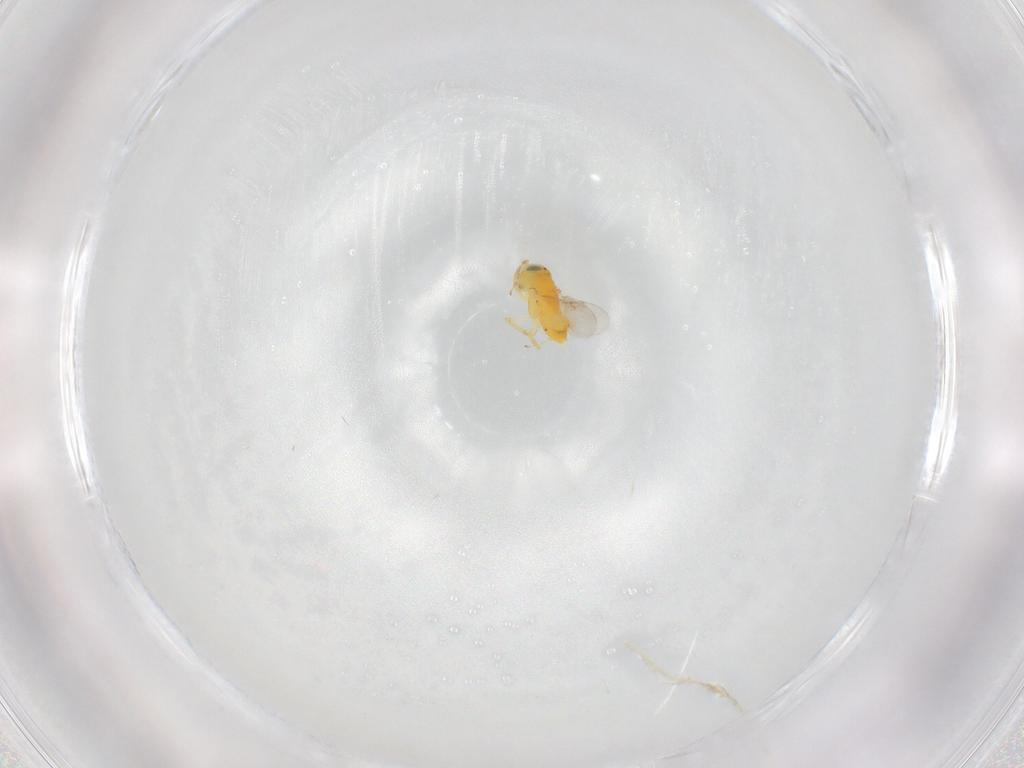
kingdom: Animalia
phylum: Arthropoda
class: Insecta
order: Hymenoptera
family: Encyrtidae
